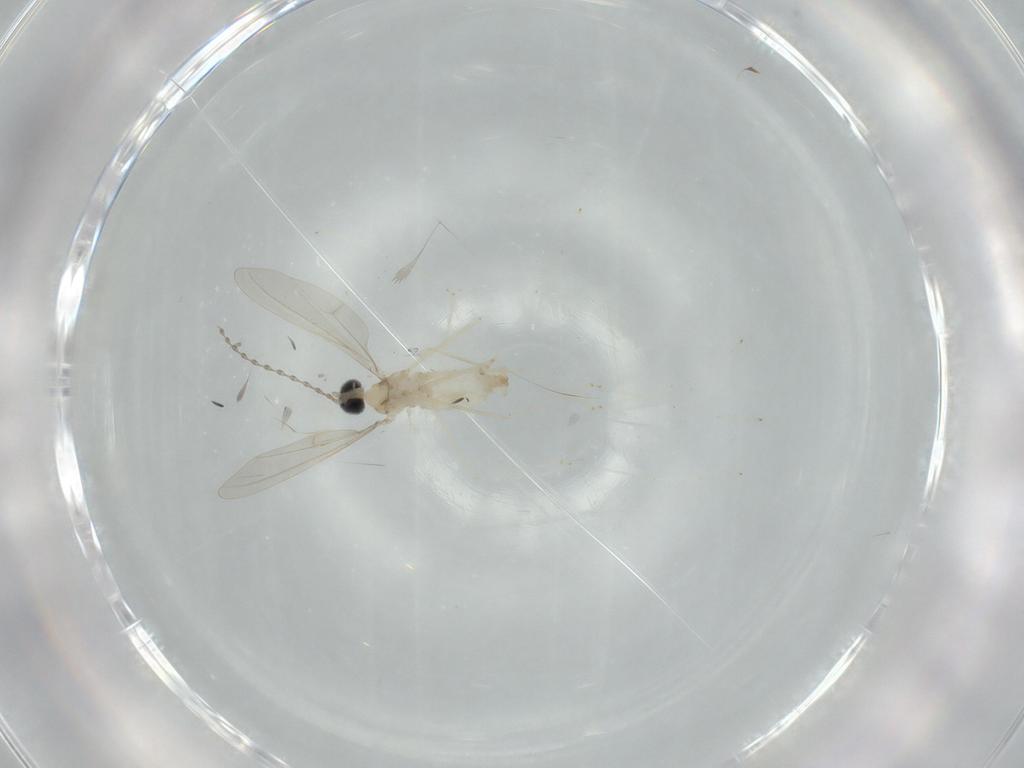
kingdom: Animalia
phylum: Arthropoda
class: Insecta
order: Diptera
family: Cecidomyiidae
